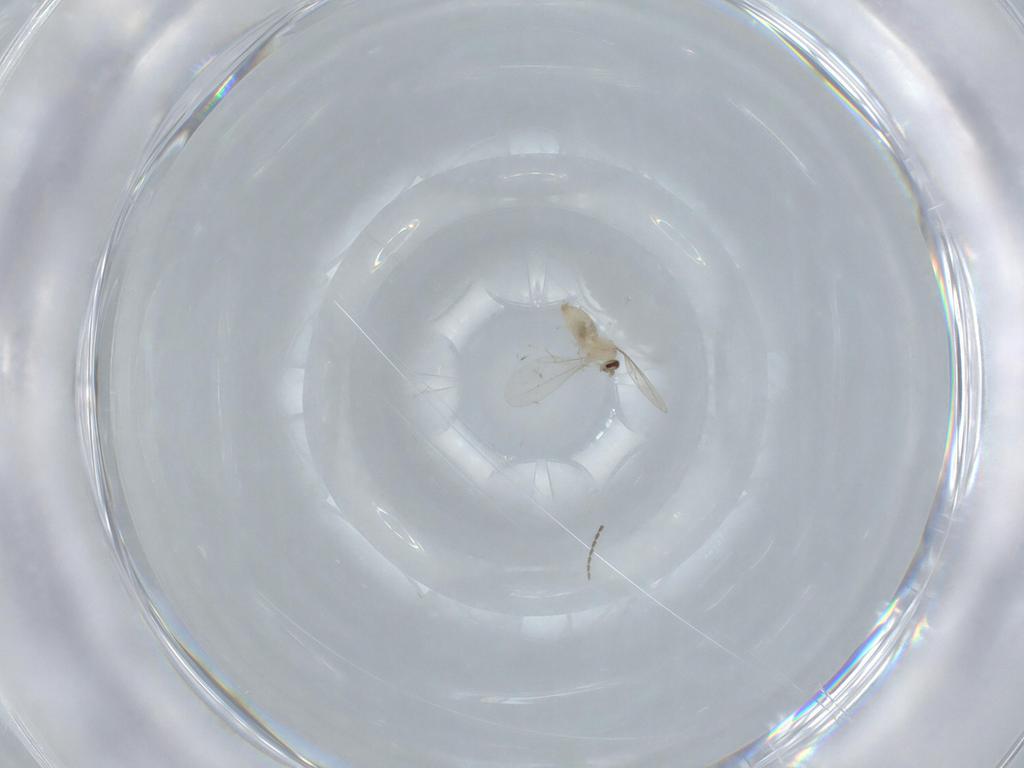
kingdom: Animalia
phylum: Arthropoda
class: Insecta
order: Diptera
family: Cecidomyiidae
